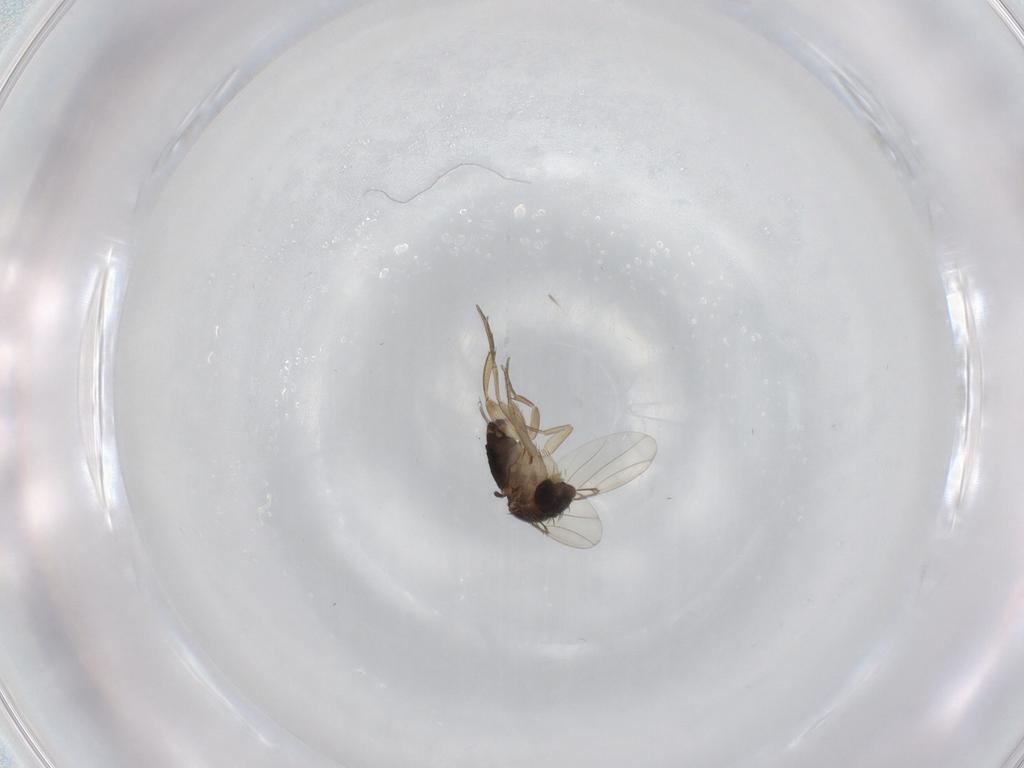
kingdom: Animalia
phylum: Arthropoda
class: Insecta
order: Diptera
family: Phoridae
